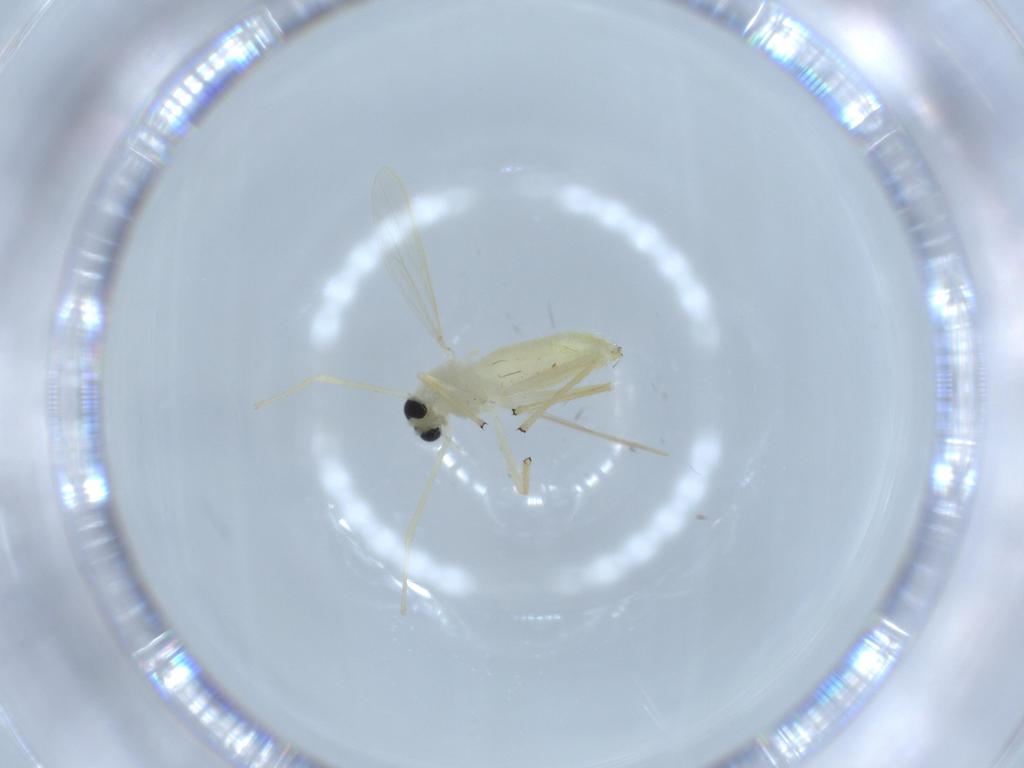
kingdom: Animalia
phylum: Arthropoda
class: Insecta
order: Diptera
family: Chironomidae
